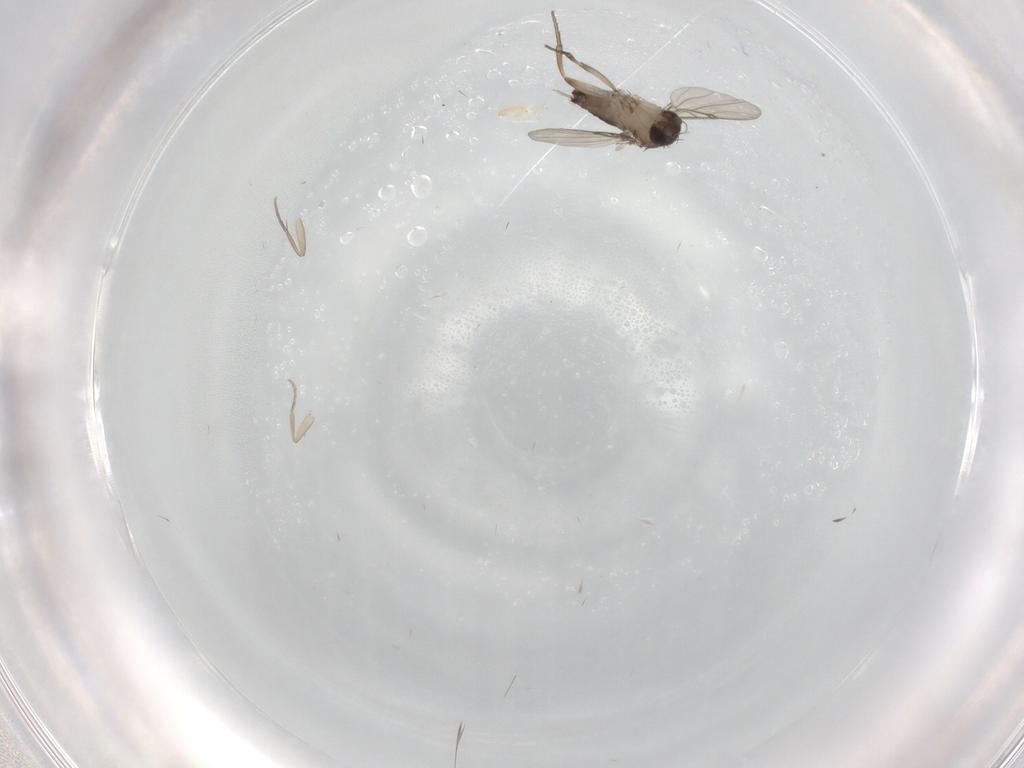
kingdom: Animalia
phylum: Arthropoda
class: Insecta
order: Diptera
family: Phoridae
